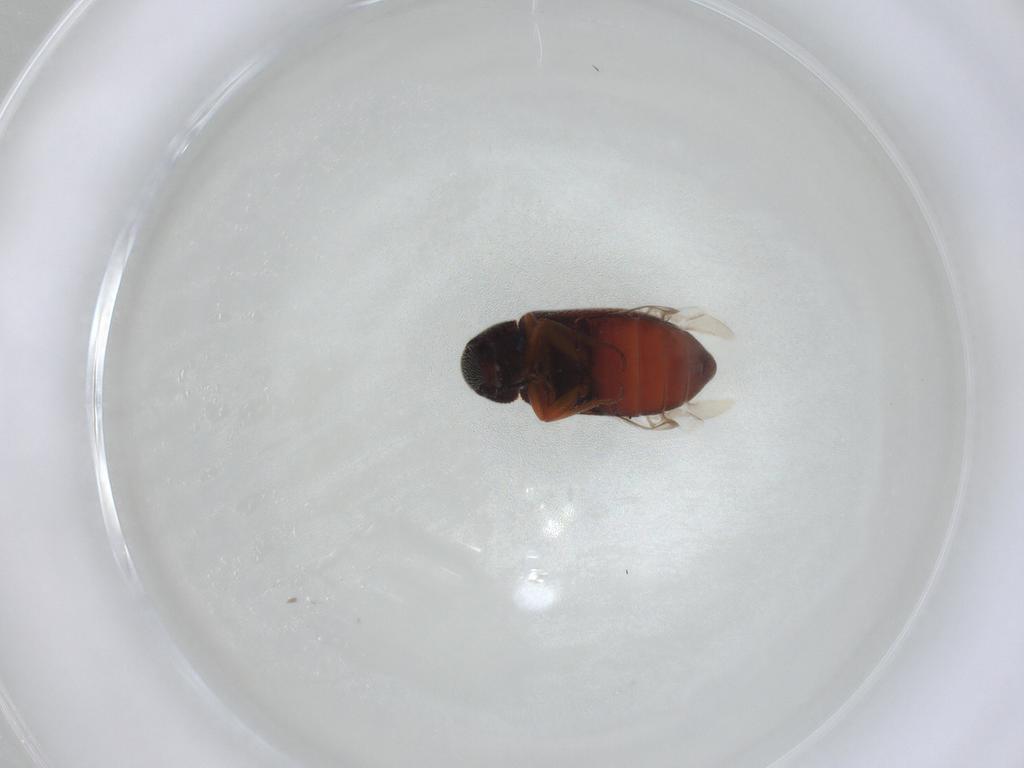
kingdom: Animalia
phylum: Arthropoda
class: Insecta
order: Coleoptera
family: Rhadalidae
